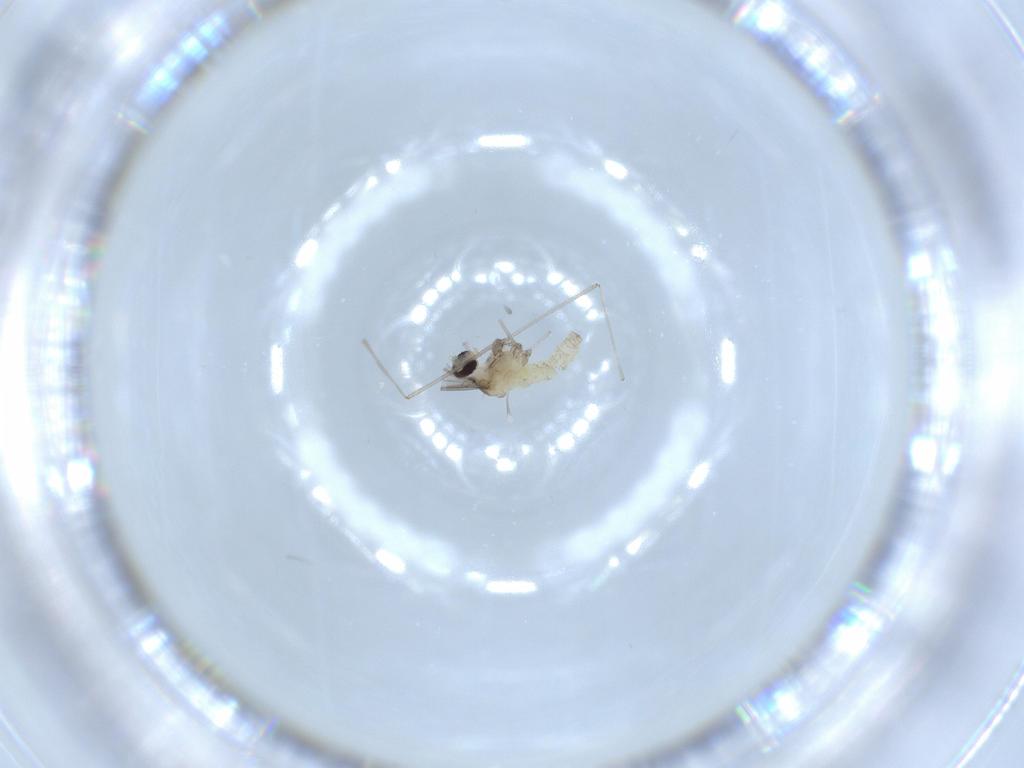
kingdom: Animalia
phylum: Arthropoda
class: Insecta
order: Diptera
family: Cecidomyiidae
